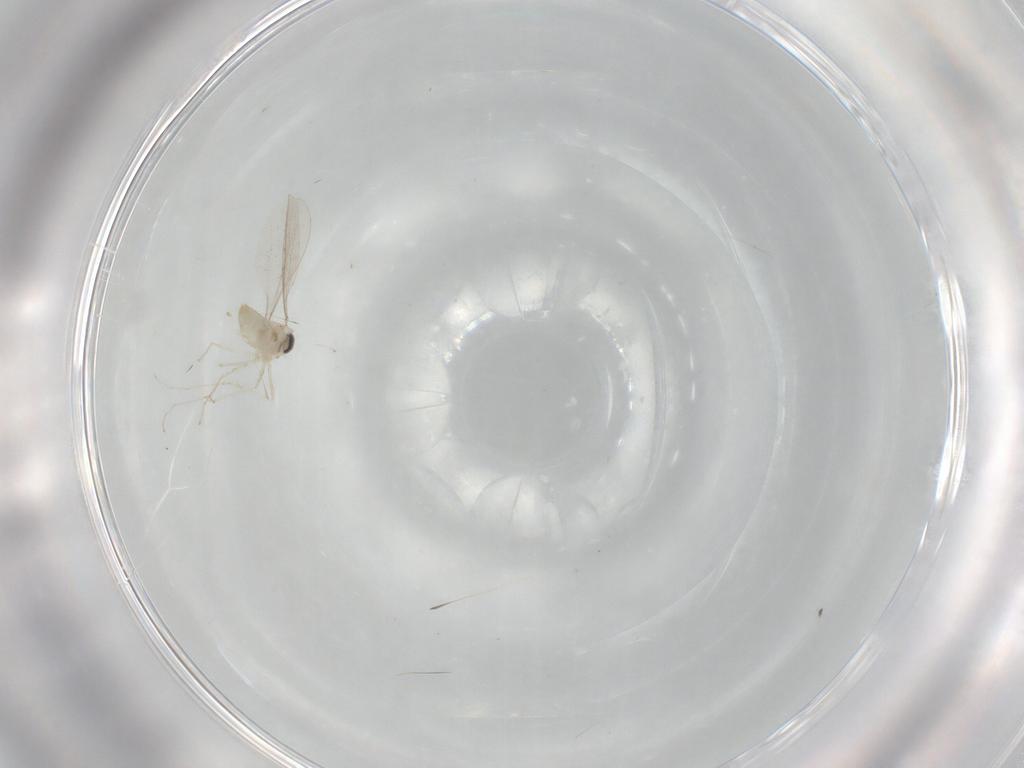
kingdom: Animalia
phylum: Arthropoda
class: Insecta
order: Diptera
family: Cecidomyiidae
